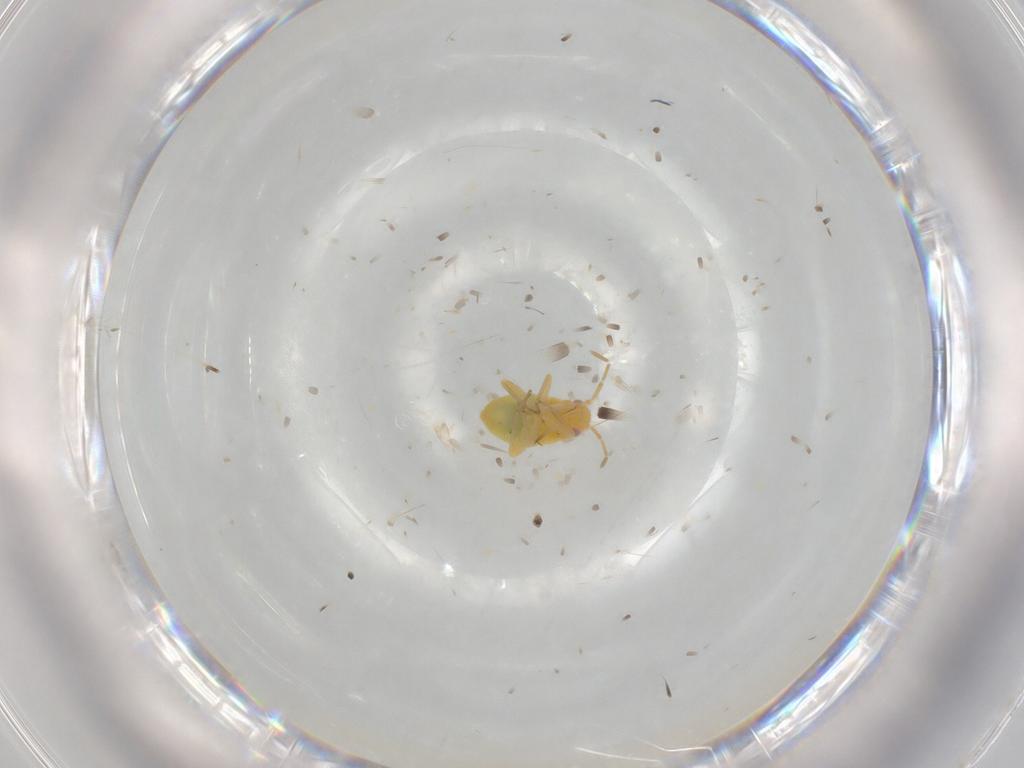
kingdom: Animalia
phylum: Arthropoda
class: Insecta
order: Hemiptera
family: Miridae
